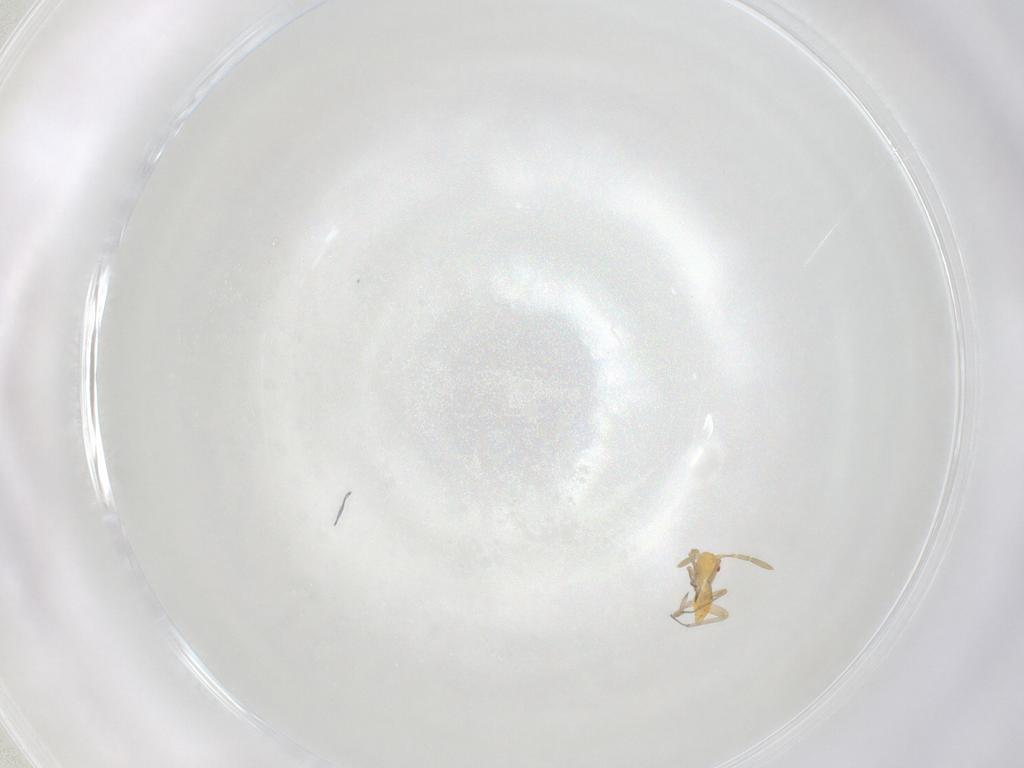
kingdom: Animalia
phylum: Arthropoda
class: Insecta
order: Hemiptera
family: Miridae
